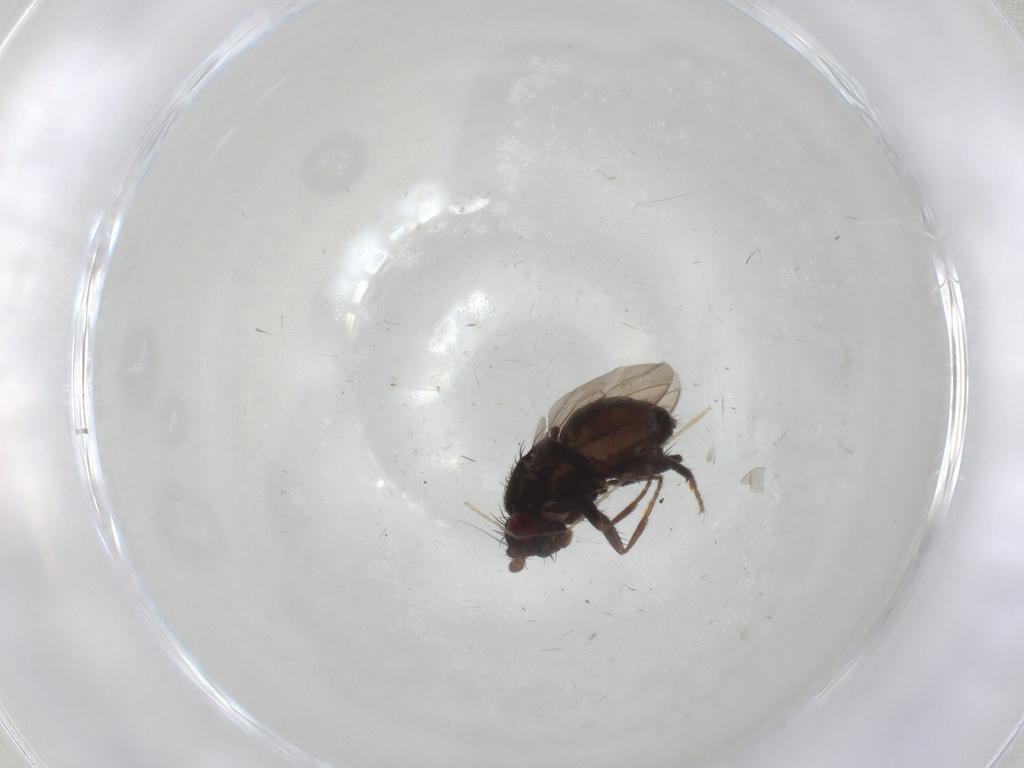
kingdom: Animalia
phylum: Arthropoda
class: Insecta
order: Diptera
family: Sphaeroceridae
